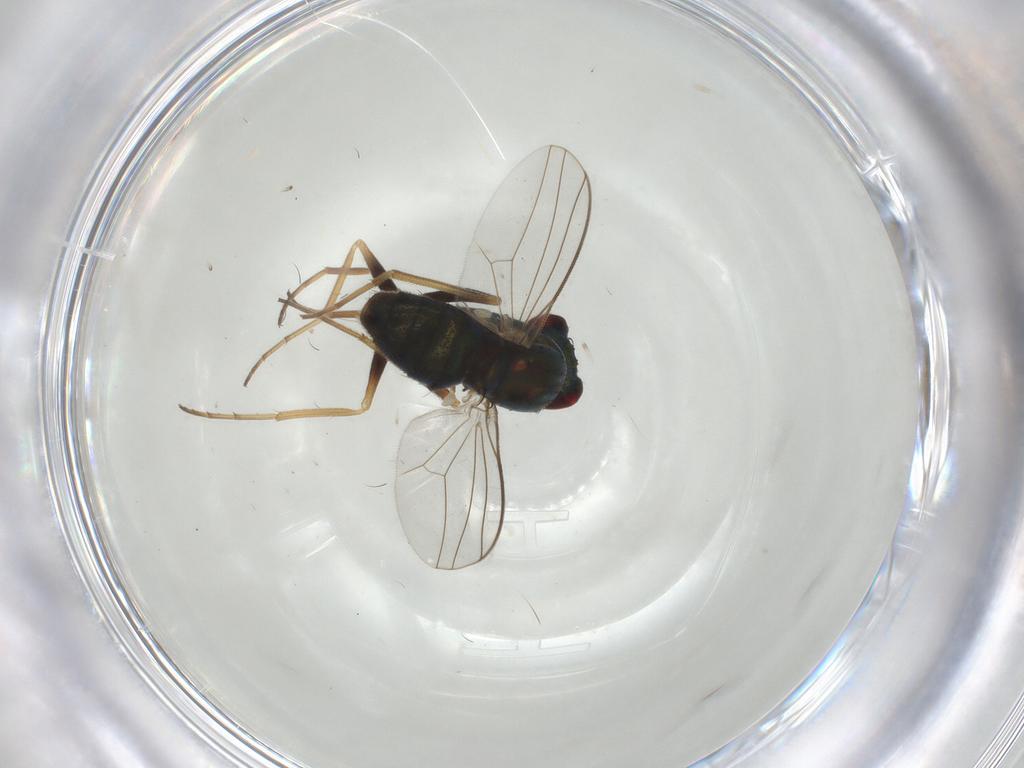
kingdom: Animalia
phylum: Arthropoda
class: Insecta
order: Diptera
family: Dolichopodidae
